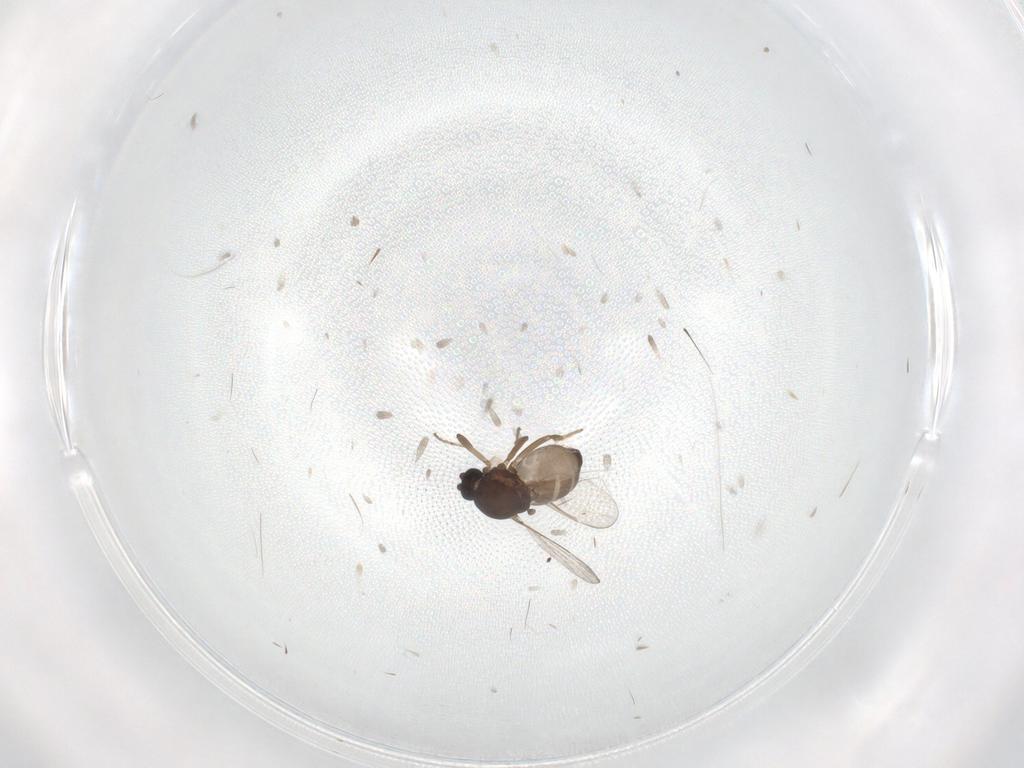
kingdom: Animalia
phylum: Arthropoda
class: Insecta
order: Diptera
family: Ceratopogonidae
